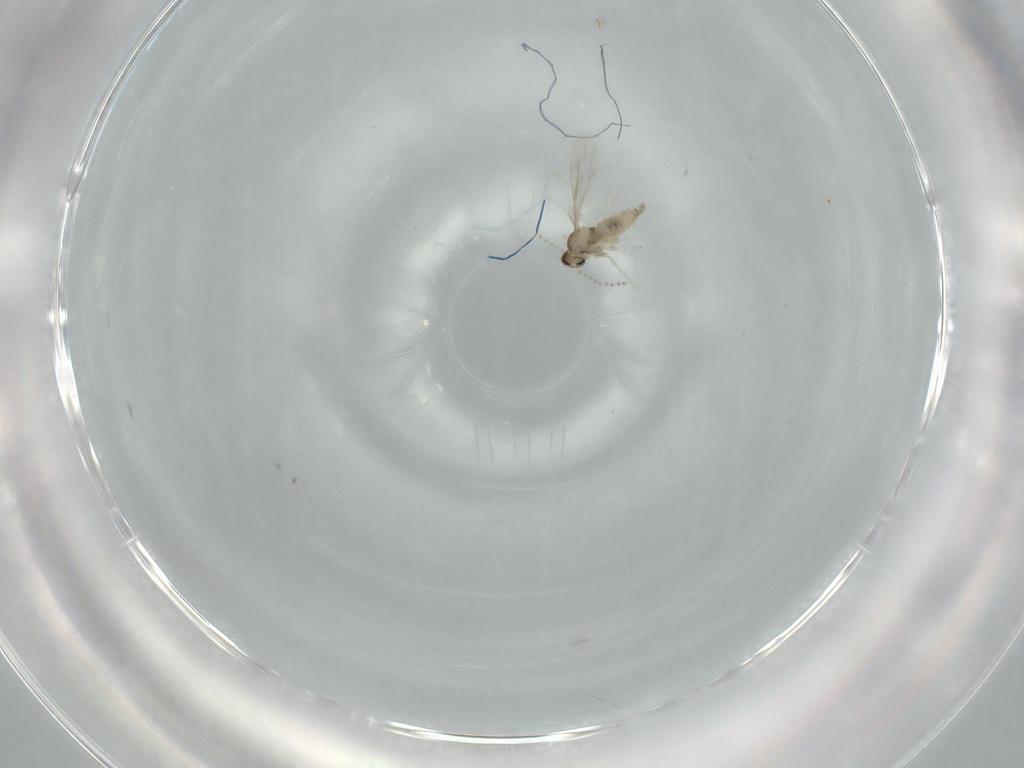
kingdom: Animalia
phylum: Arthropoda
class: Insecta
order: Diptera
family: Cecidomyiidae
